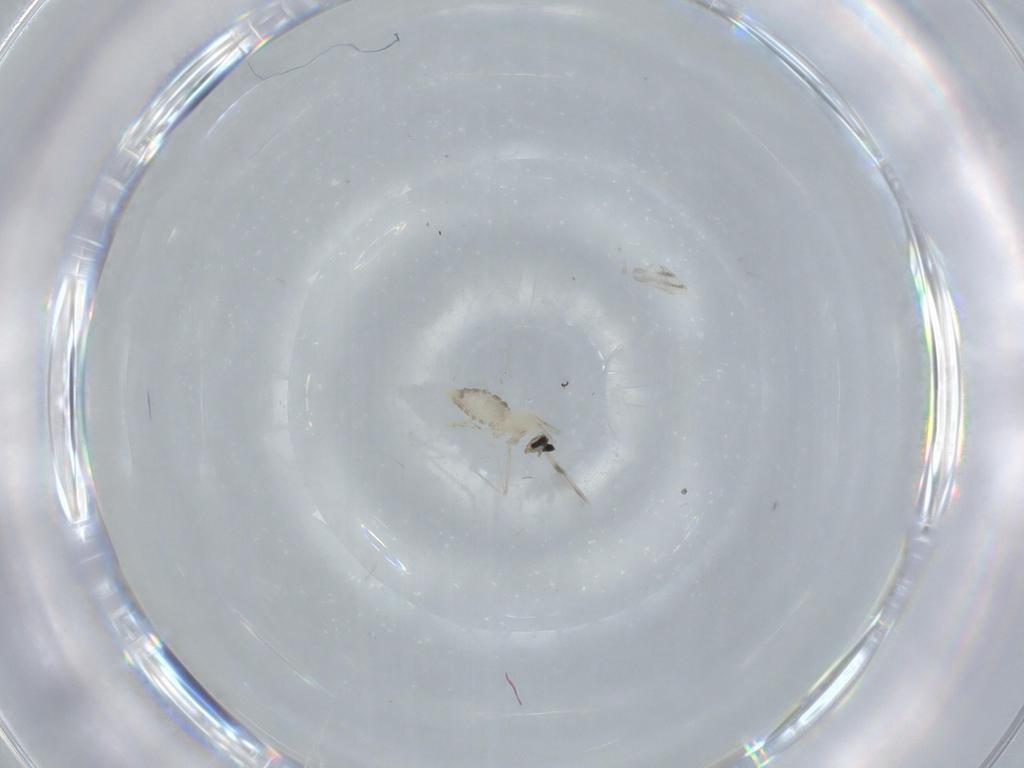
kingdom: Animalia
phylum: Arthropoda
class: Insecta
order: Diptera
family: Cecidomyiidae
